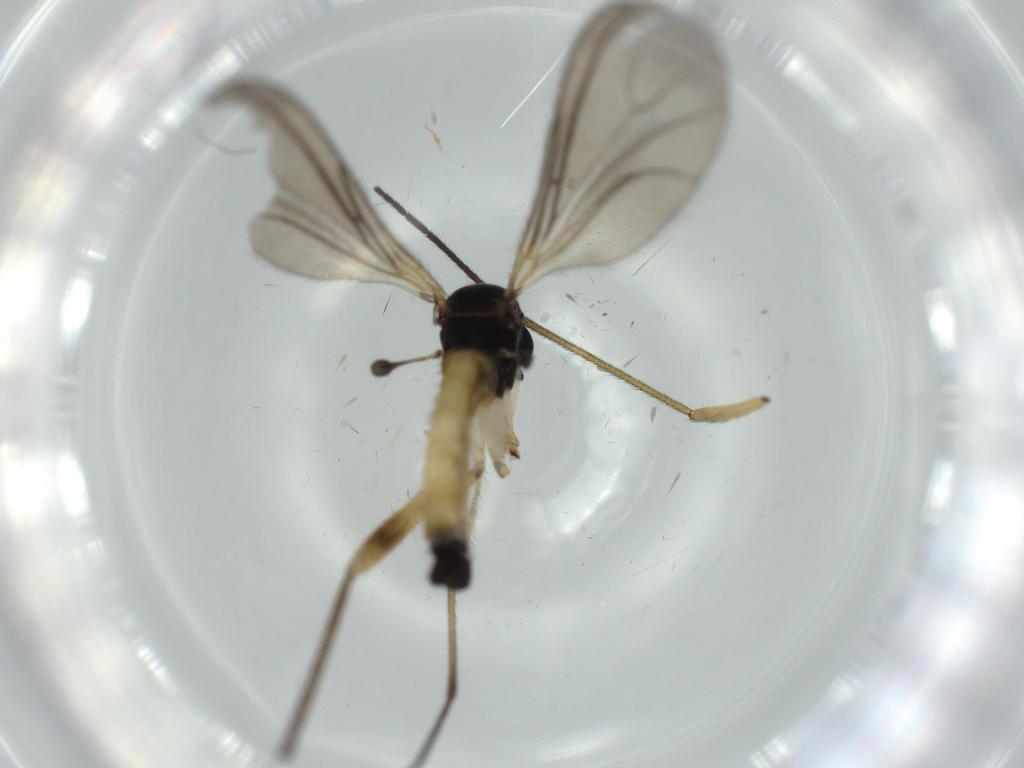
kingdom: Animalia
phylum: Arthropoda
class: Insecta
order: Diptera
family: Sciaridae
